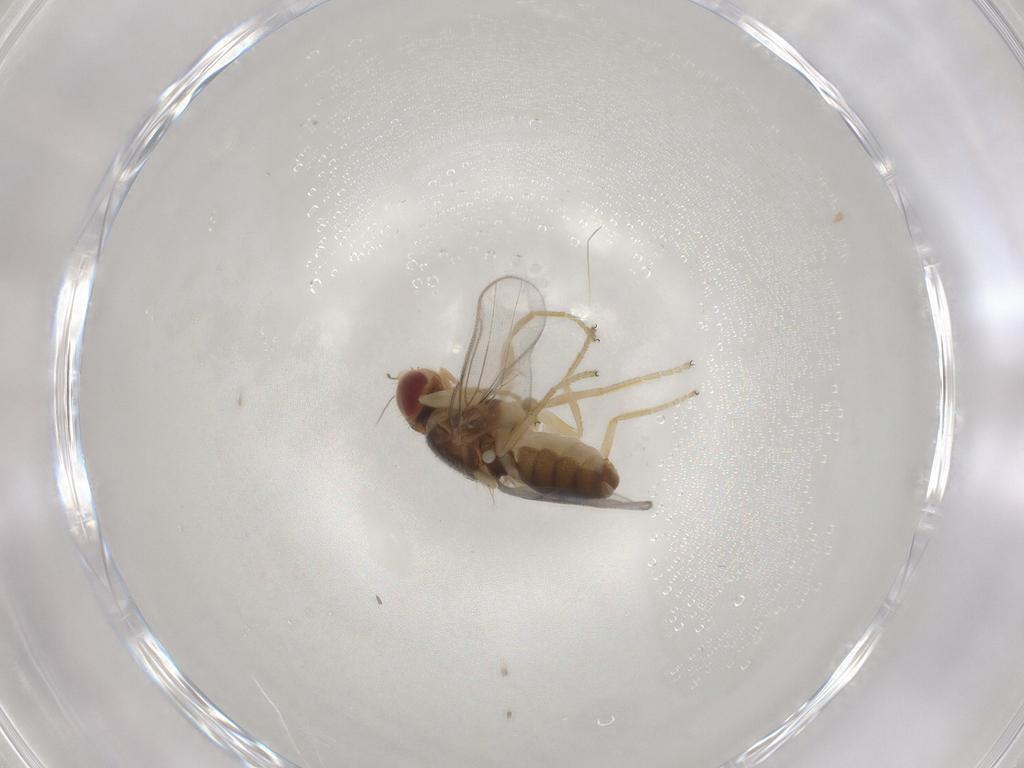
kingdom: Animalia
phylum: Arthropoda
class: Insecta
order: Diptera
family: Chloropidae
